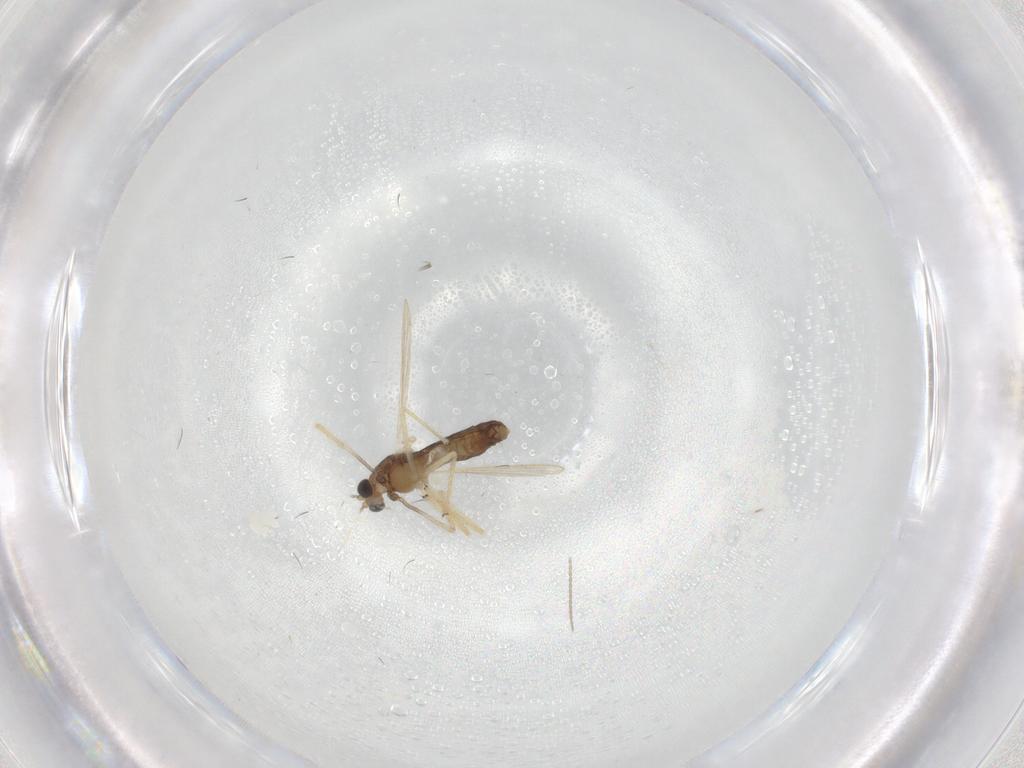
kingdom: Animalia
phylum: Arthropoda
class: Insecta
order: Diptera
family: Chironomidae
